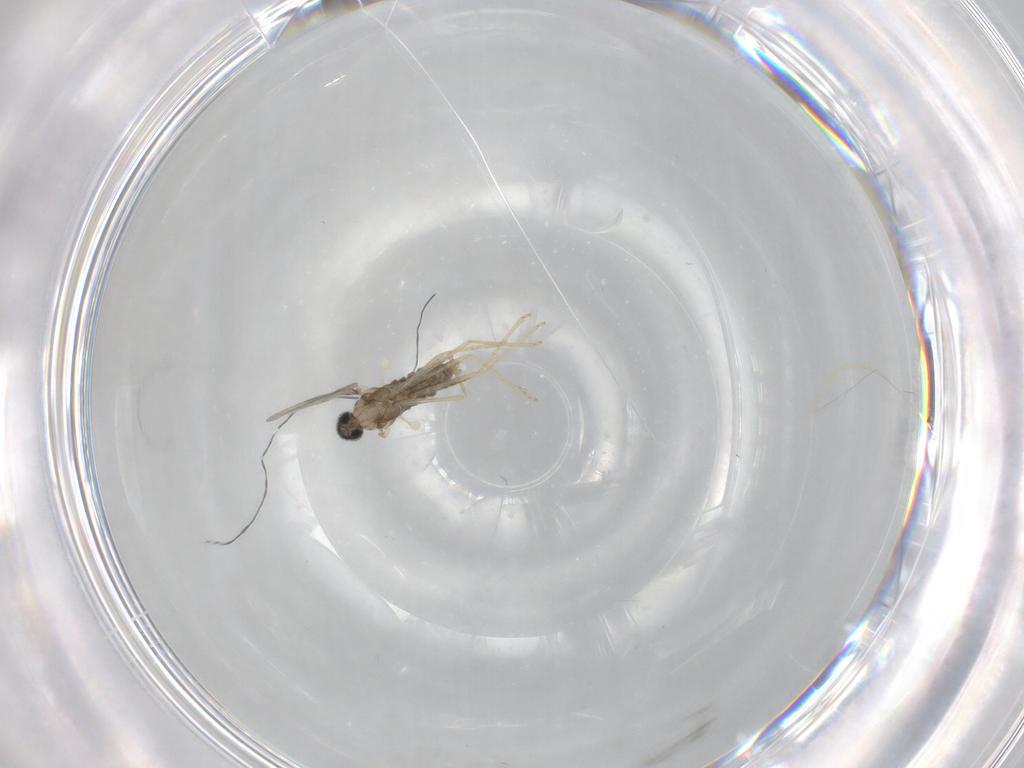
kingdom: Animalia
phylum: Arthropoda
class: Insecta
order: Diptera
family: Cecidomyiidae
